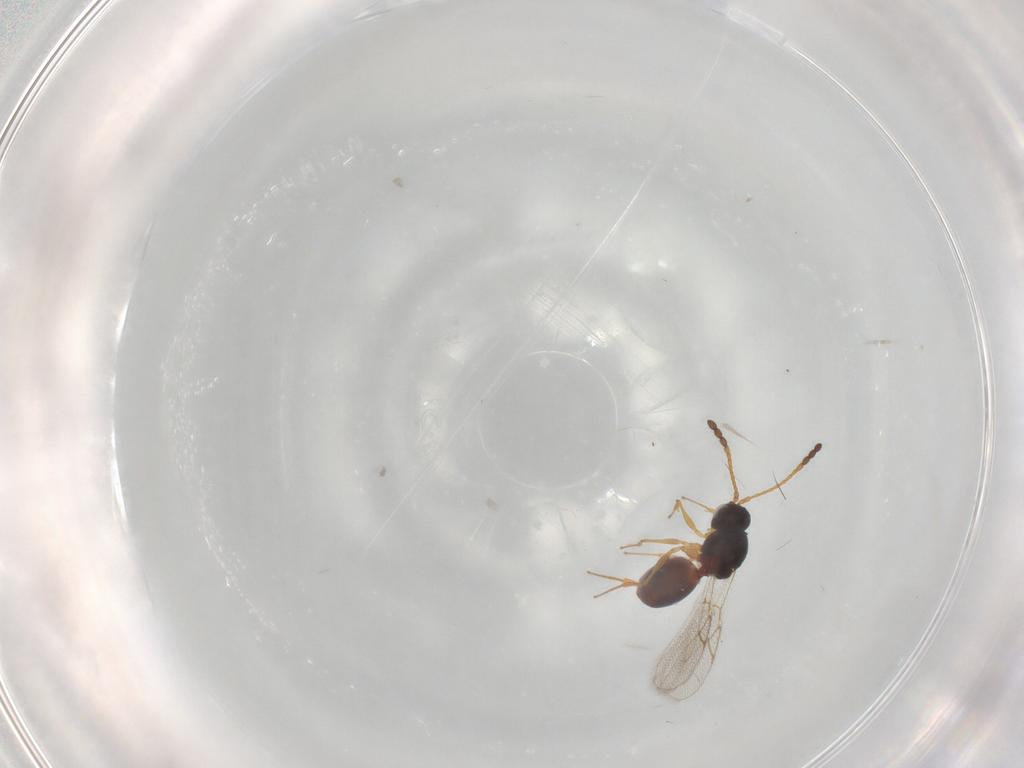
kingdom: Animalia
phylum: Arthropoda
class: Insecta
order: Hymenoptera
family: Figitidae
